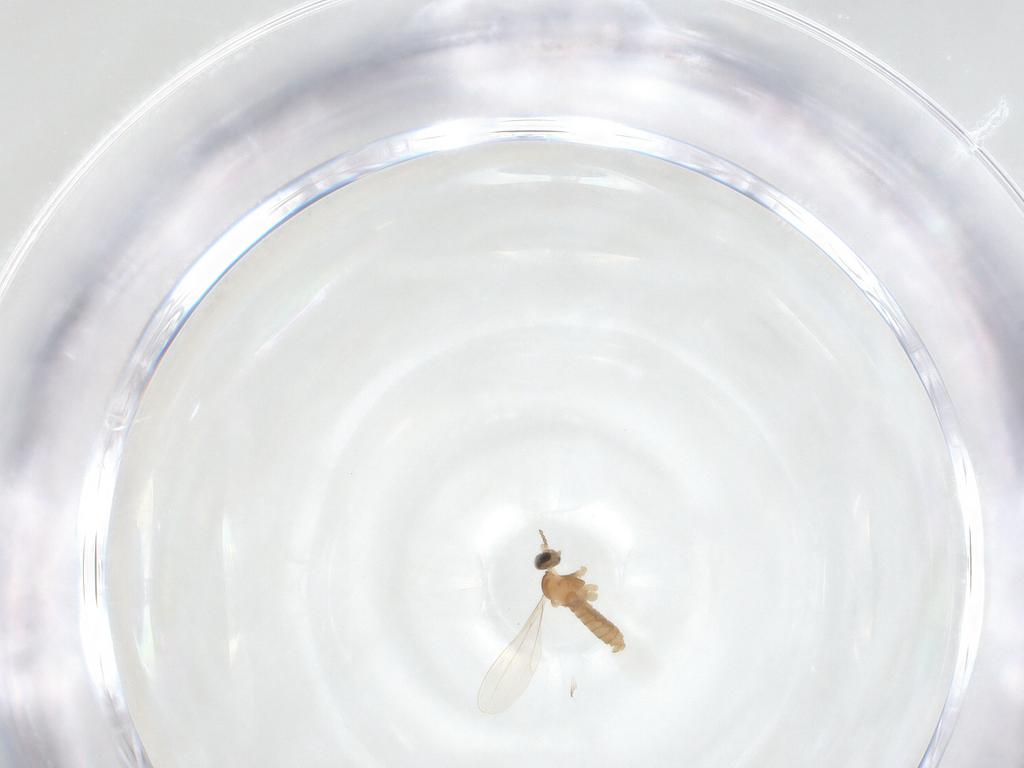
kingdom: Animalia
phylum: Arthropoda
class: Insecta
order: Diptera
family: Cecidomyiidae
